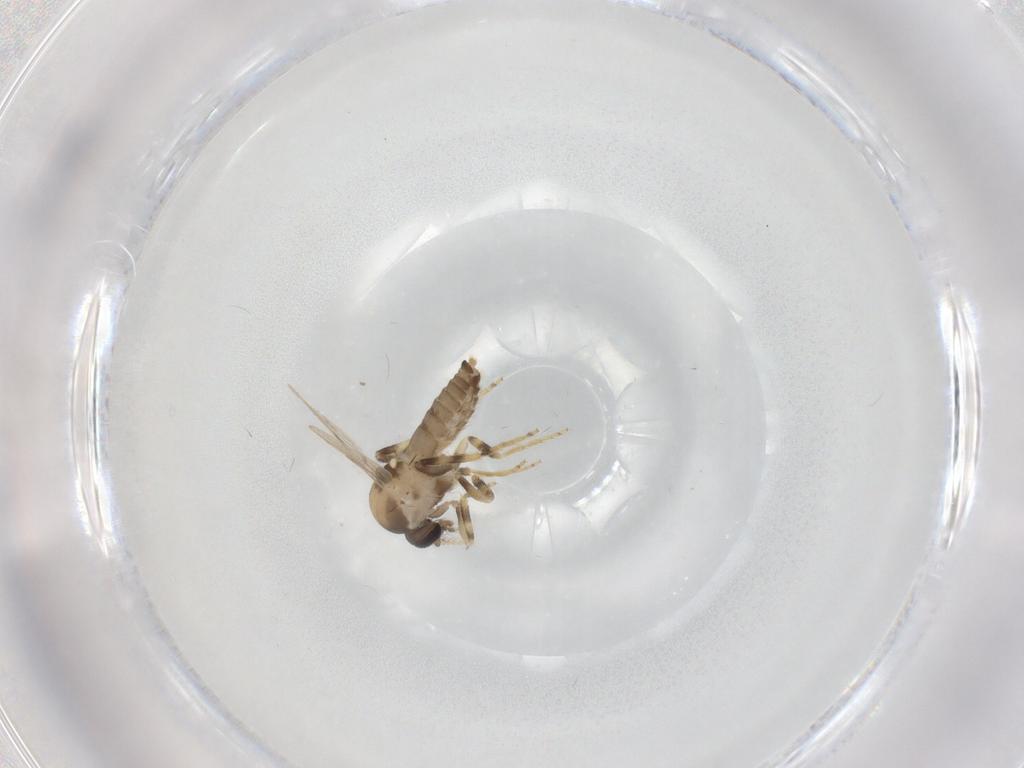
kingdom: Animalia
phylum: Arthropoda
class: Insecta
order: Diptera
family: Ceratopogonidae
